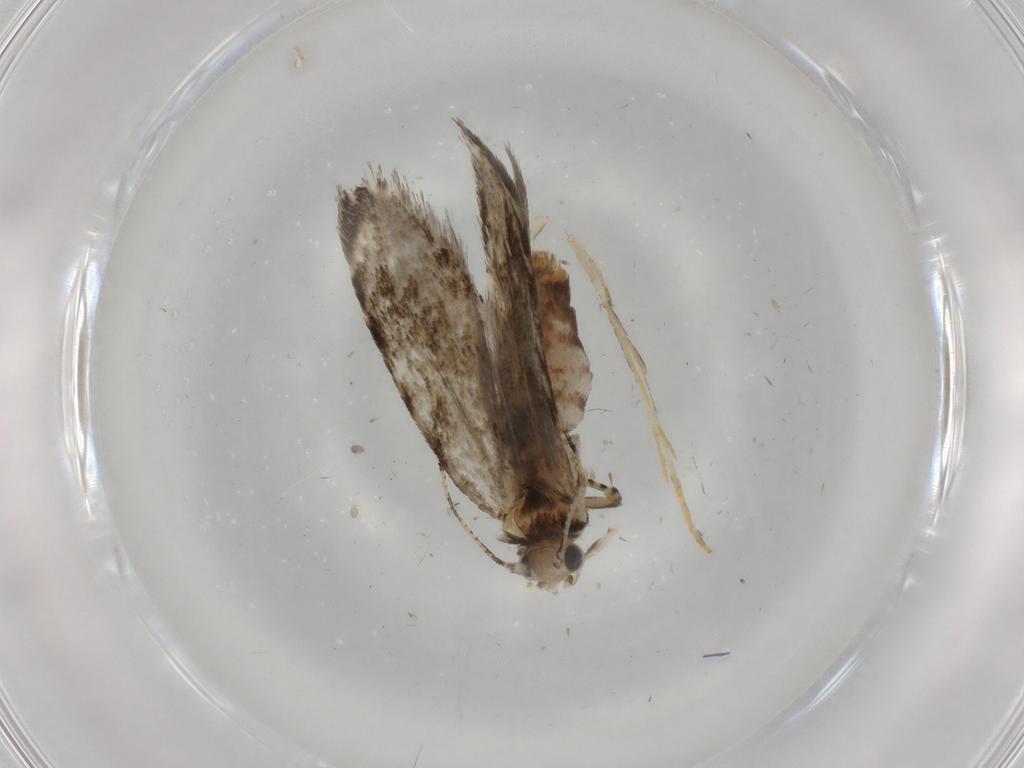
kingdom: Animalia
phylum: Arthropoda
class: Insecta
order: Lepidoptera
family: Tineidae
